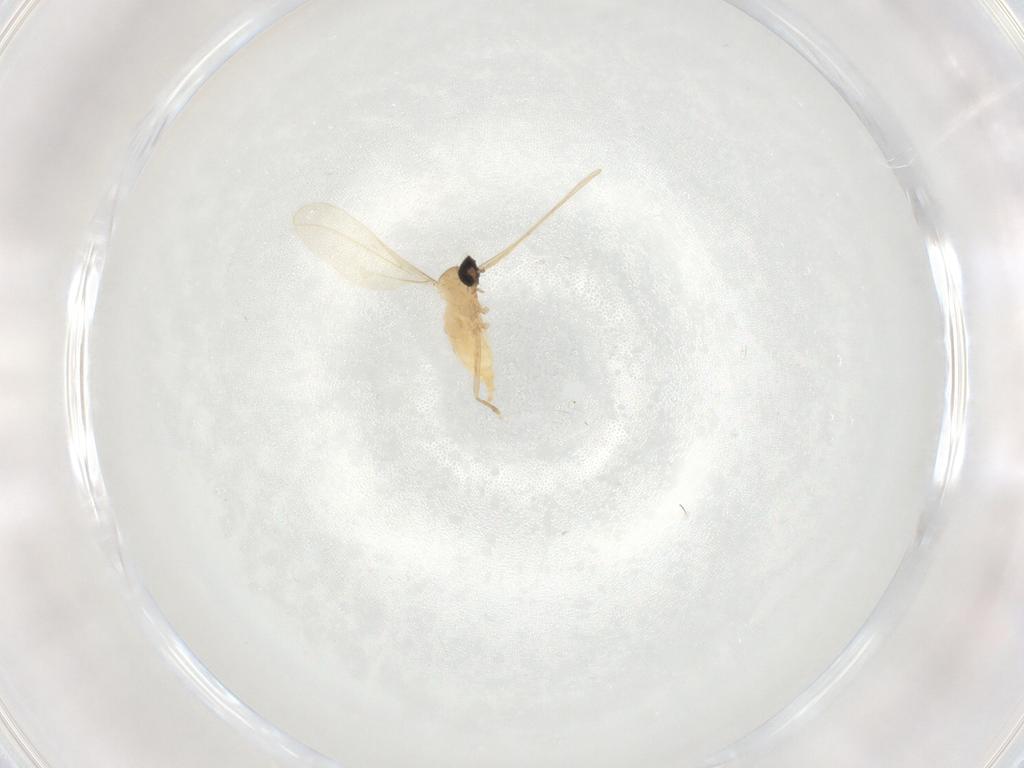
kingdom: Animalia
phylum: Arthropoda
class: Insecta
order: Diptera
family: Cecidomyiidae
